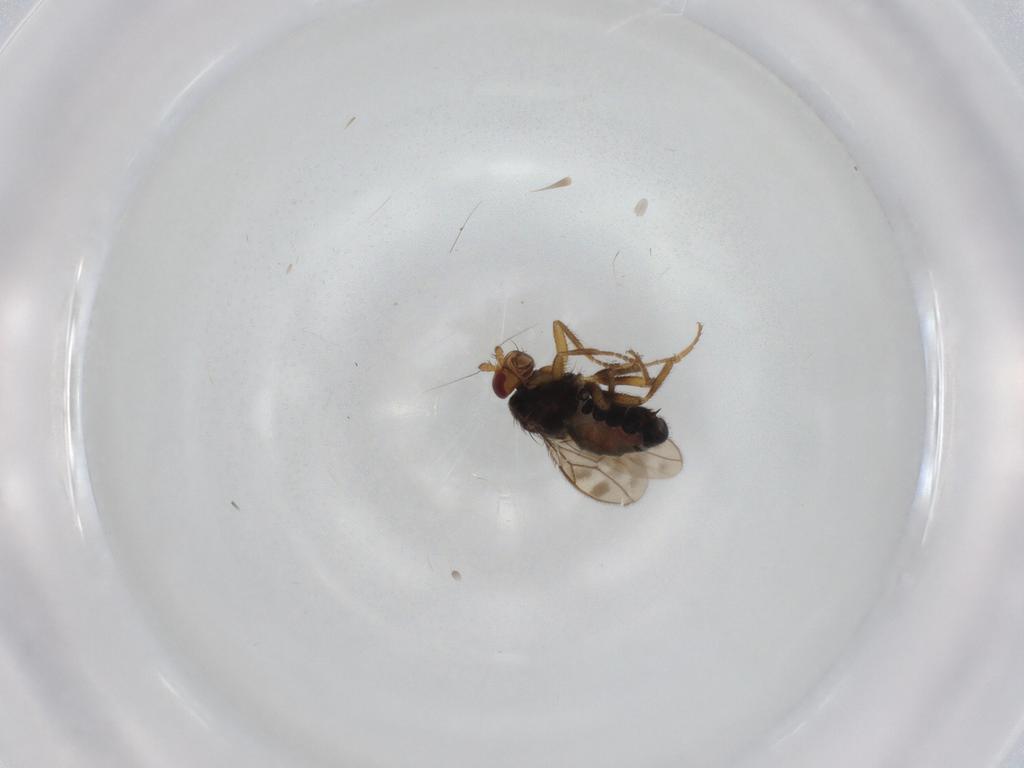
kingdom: Animalia
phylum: Arthropoda
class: Insecta
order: Diptera
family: Sphaeroceridae
